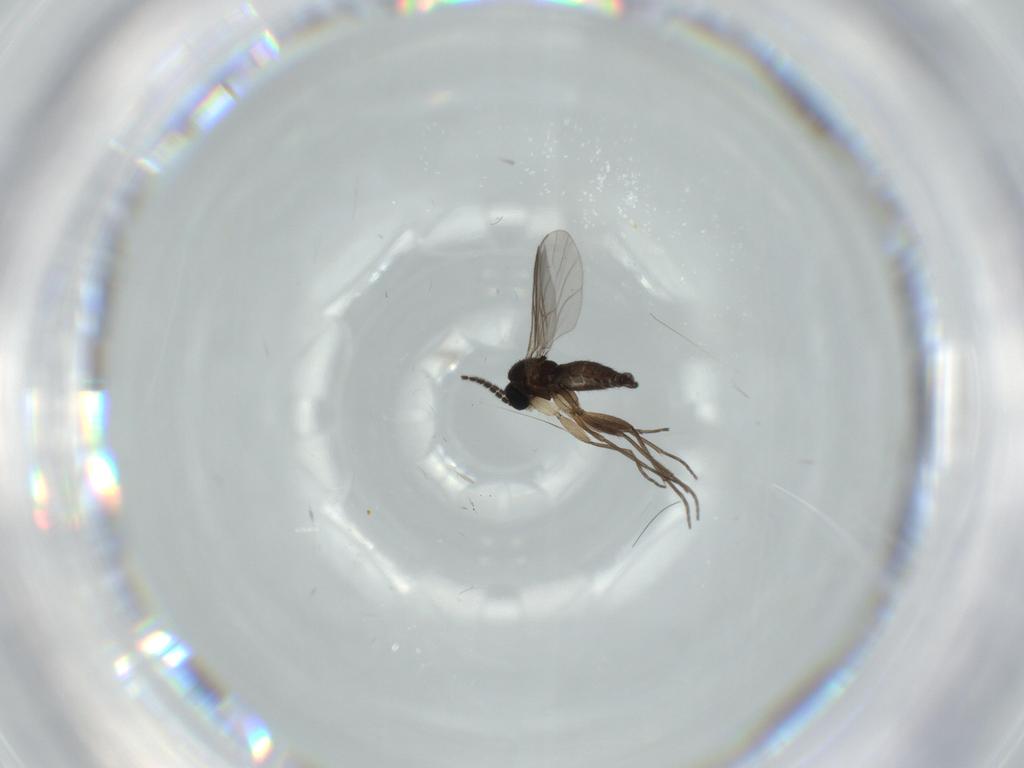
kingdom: Animalia
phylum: Arthropoda
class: Insecta
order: Diptera
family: Sciaridae
